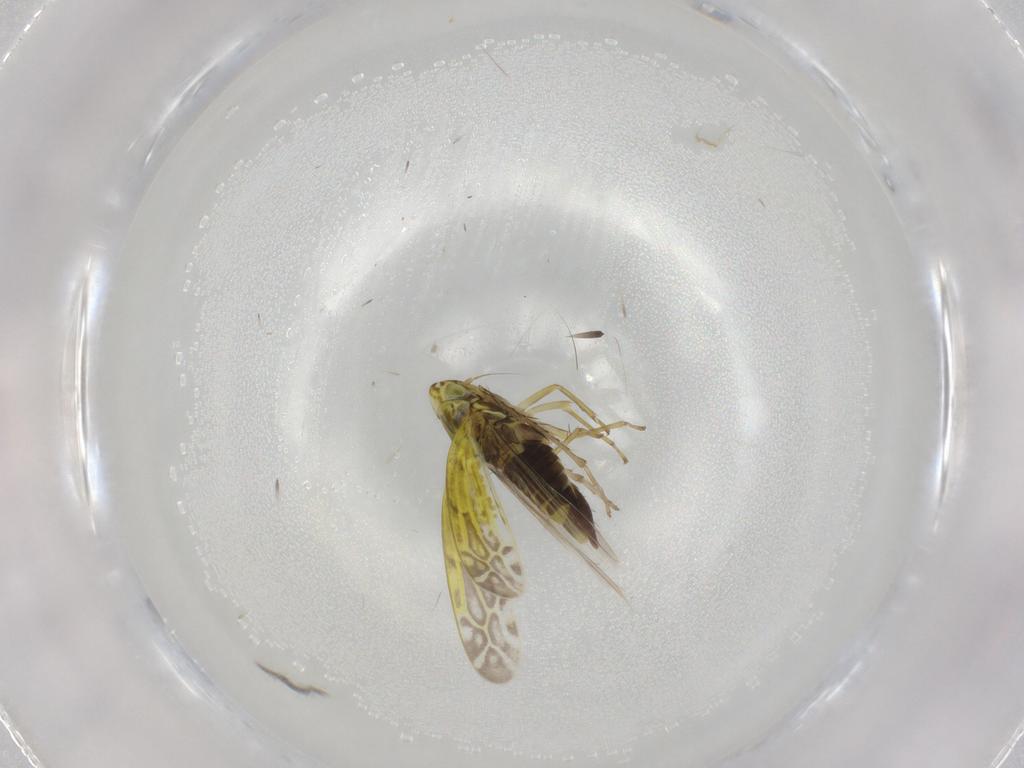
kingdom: Animalia
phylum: Arthropoda
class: Insecta
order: Hemiptera
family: Cicadellidae
